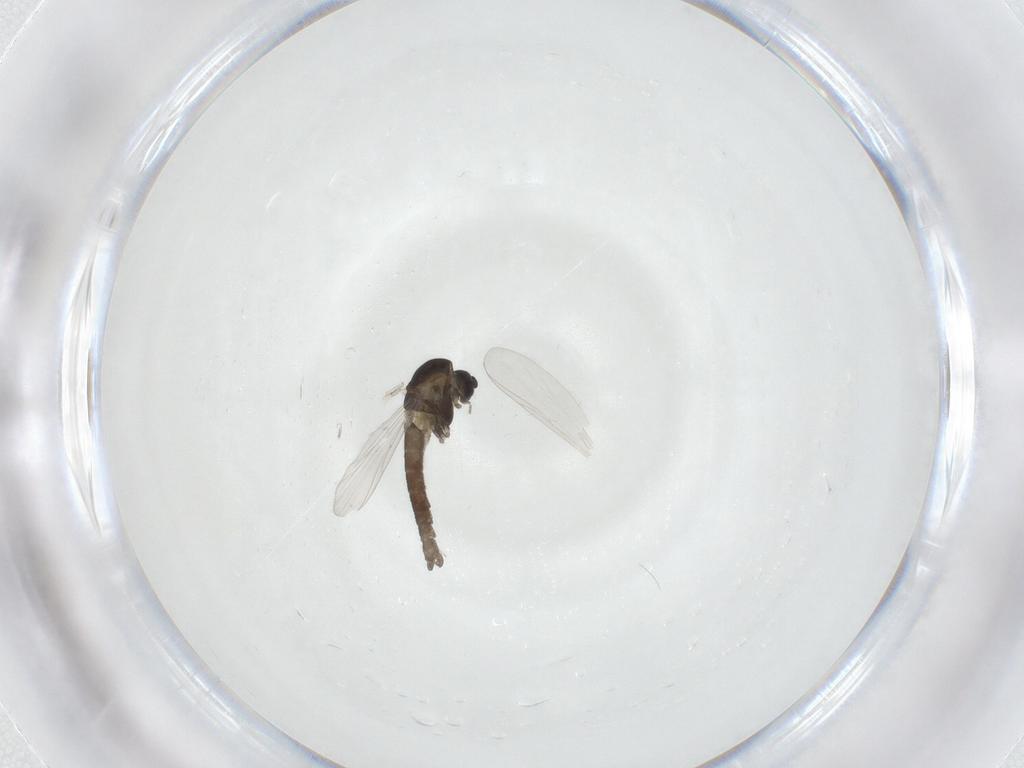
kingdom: Animalia
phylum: Arthropoda
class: Insecta
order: Diptera
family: Chironomidae
